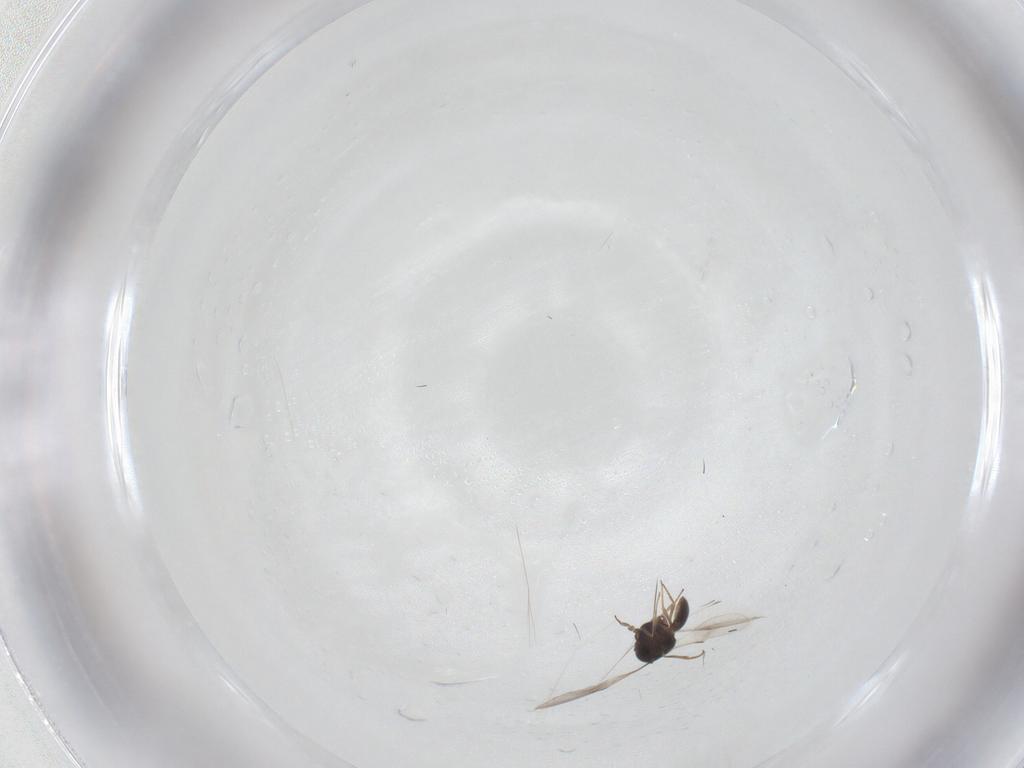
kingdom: Animalia
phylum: Arthropoda
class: Insecta
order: Hymenoptera
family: Scelionidae
